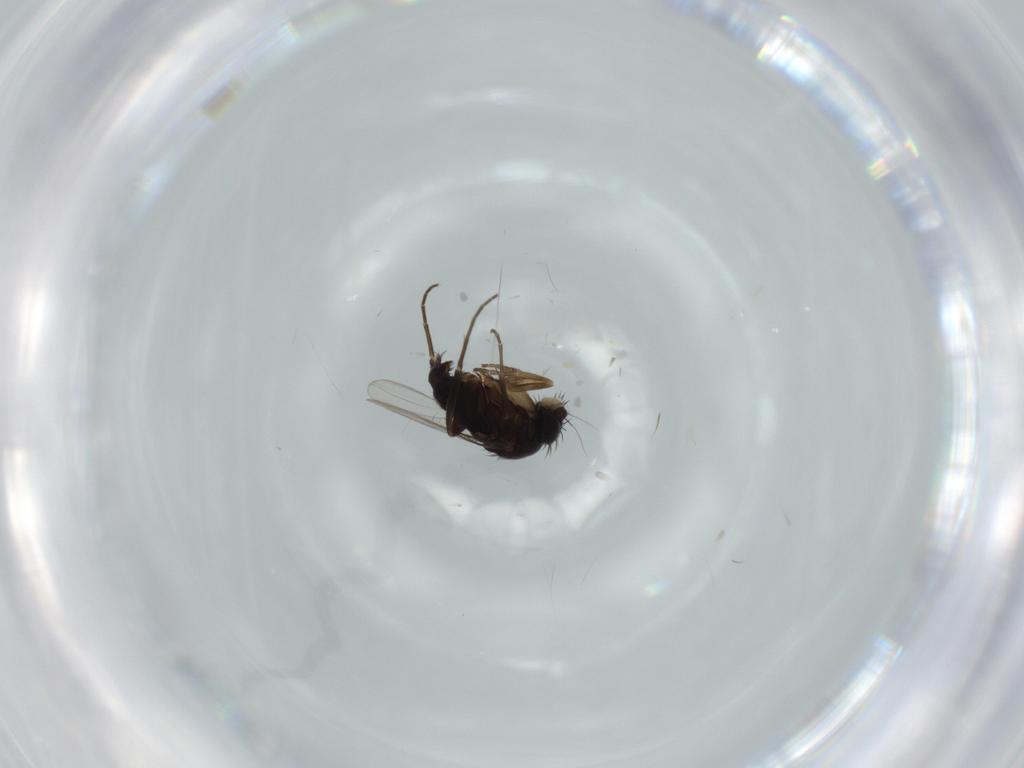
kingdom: Animalia
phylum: Arthropoda
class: Insecta
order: Diptera
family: Phoridae
